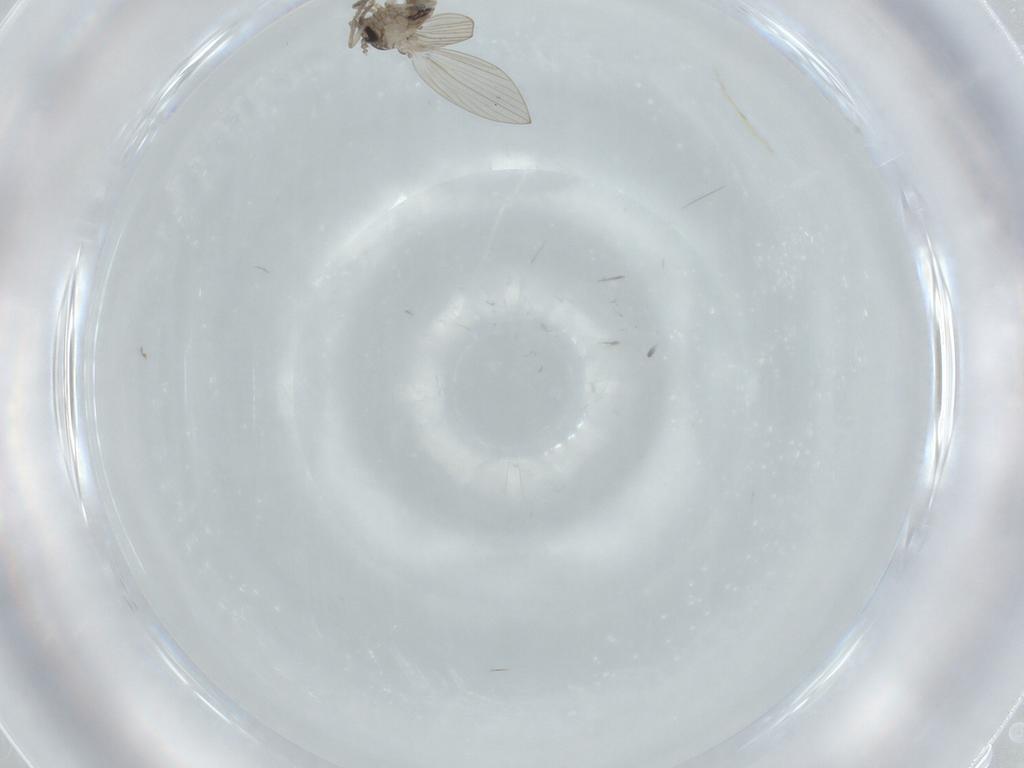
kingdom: Animalia
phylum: Arthropoda
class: Insecta
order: Diptera
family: Psychodidae
